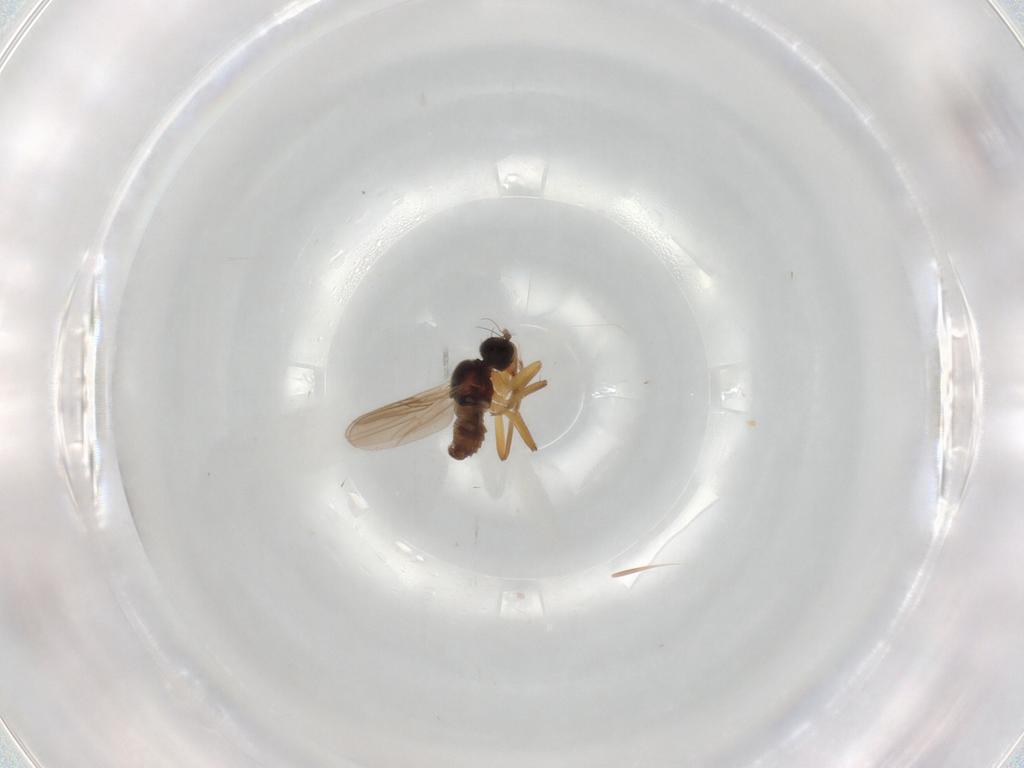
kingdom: Animalia
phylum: Arthropoda
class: Insecta
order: Diptera
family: Hybotidae
